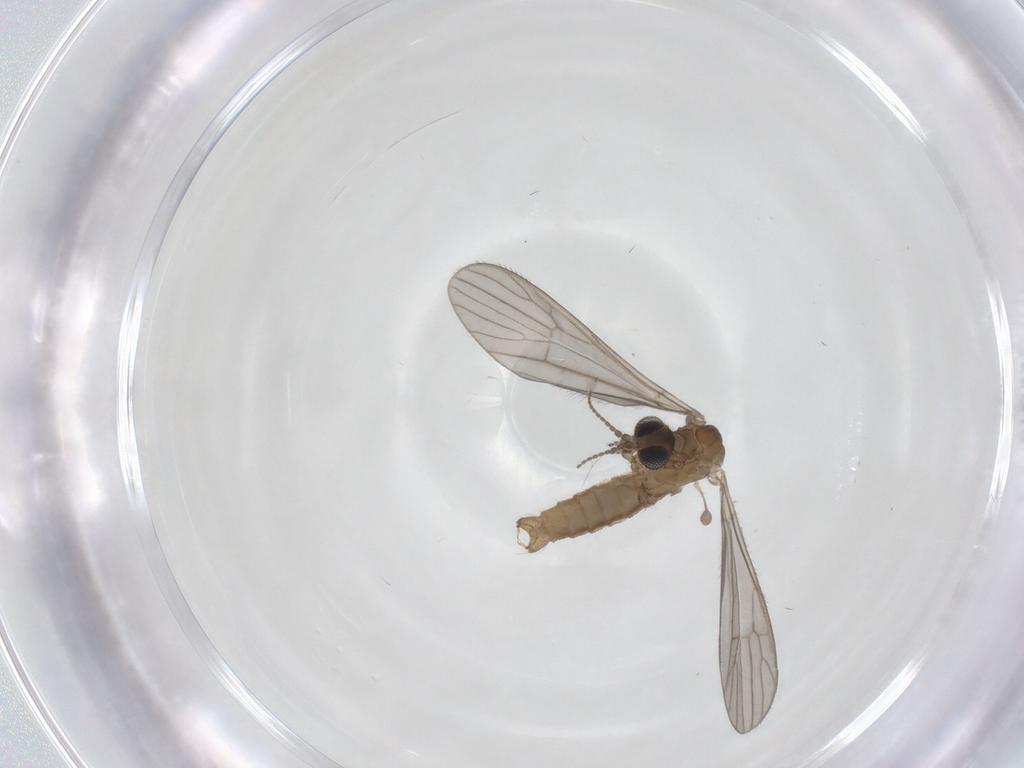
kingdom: Animalia
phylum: Arthropoda
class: Insecta
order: Diptera
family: Limoniidae
